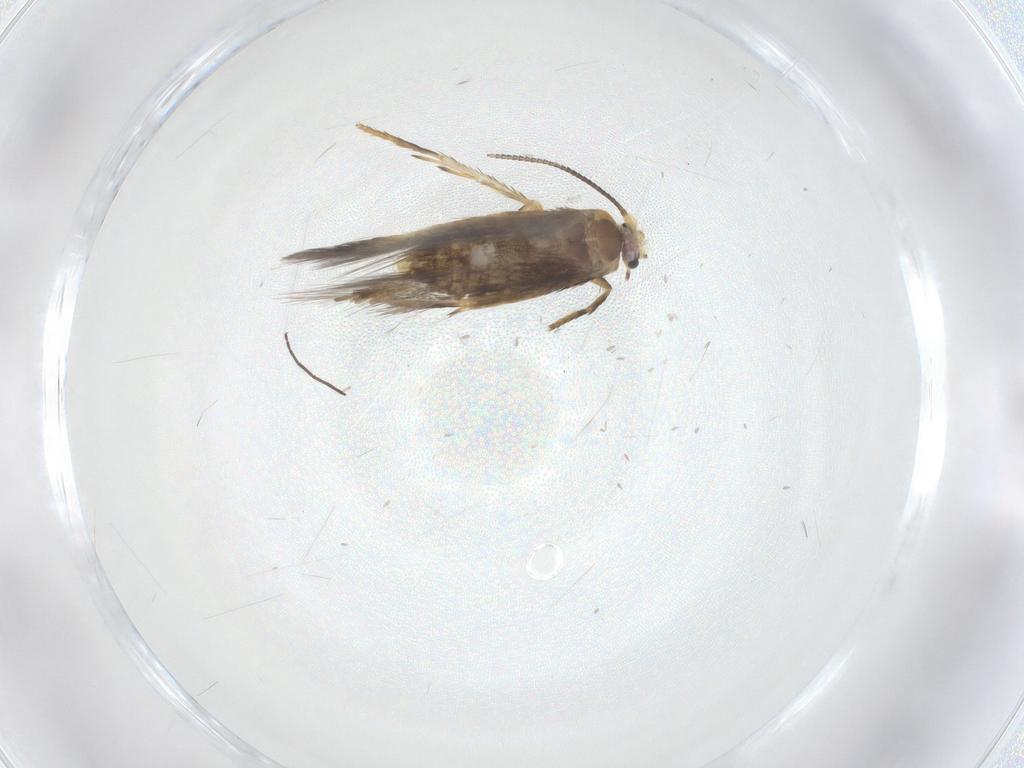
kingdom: Animalia
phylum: Arthropoda
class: Insecta
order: Lepidoptera
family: Nepticulidae
